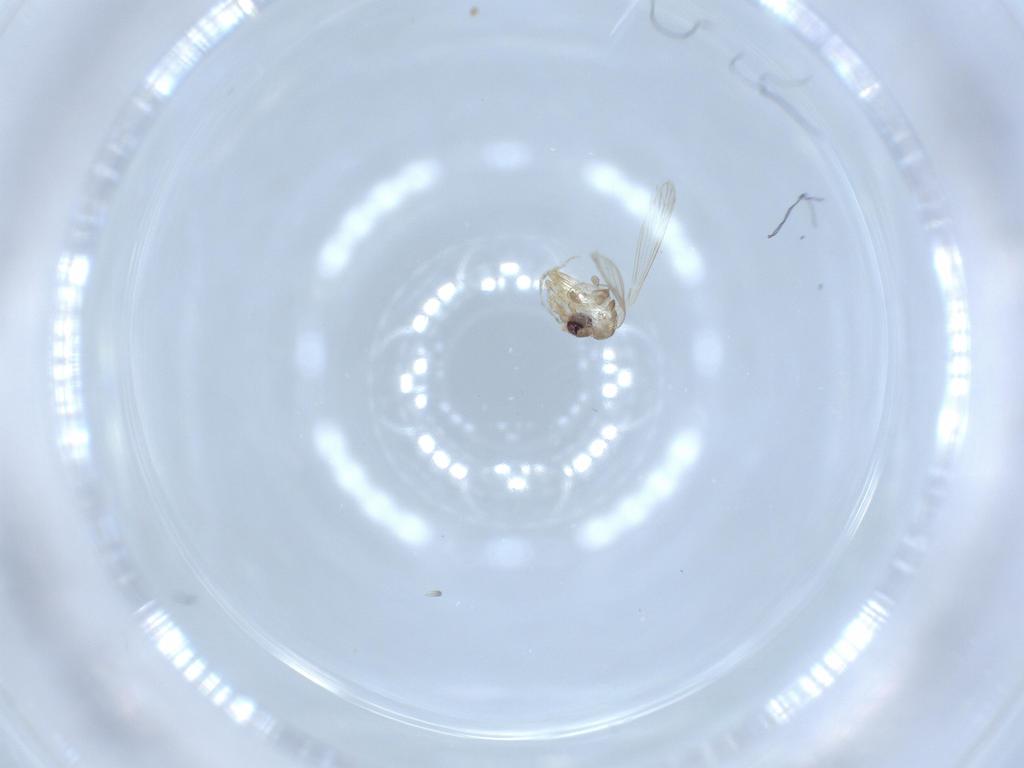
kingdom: Animalia
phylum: Arthropoda
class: Insecta
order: Diptera
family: Psychodidae
